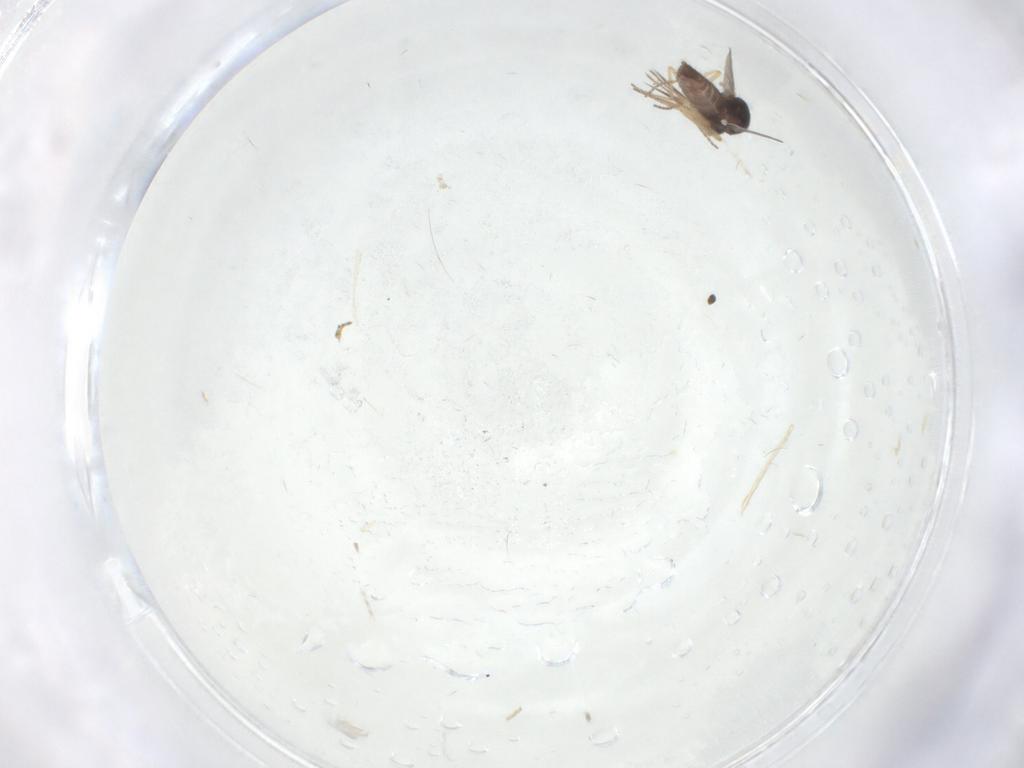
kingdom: Animalia
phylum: Arthropoda
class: Insecta
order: Diptera
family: Ceratopogonidae
